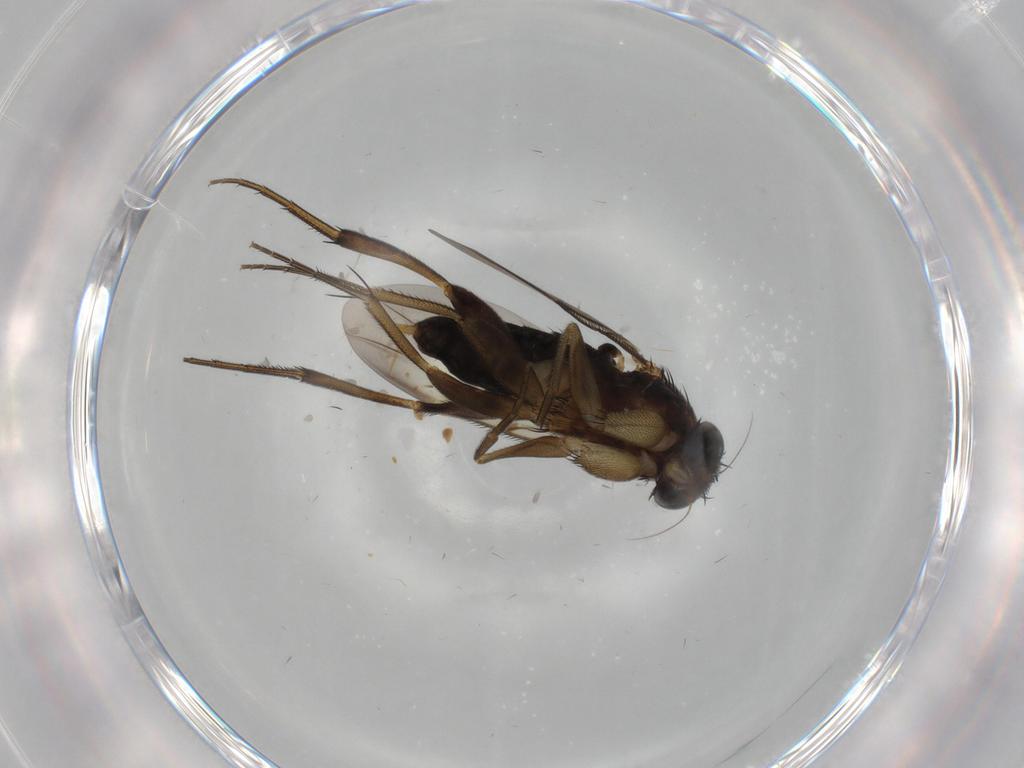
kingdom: Animalia
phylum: Arthropoda
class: Insecta
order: Diptera
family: Phoridae
